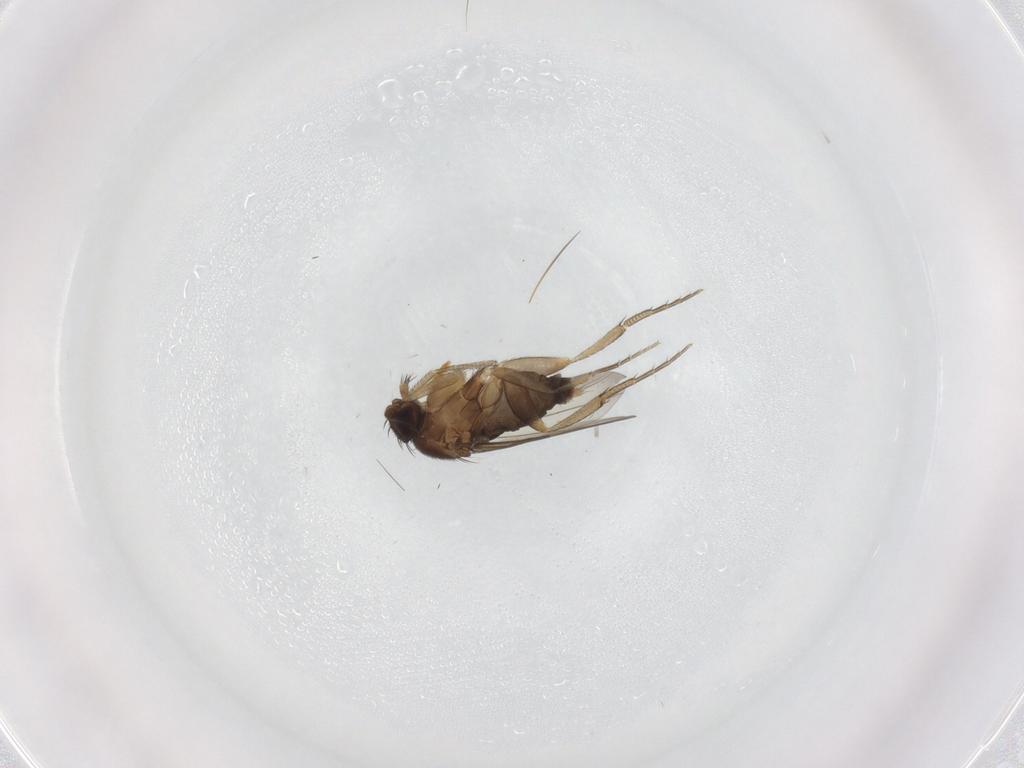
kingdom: Animalia
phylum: Arthropoda
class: Insecta
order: Diptera
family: Phoridae
